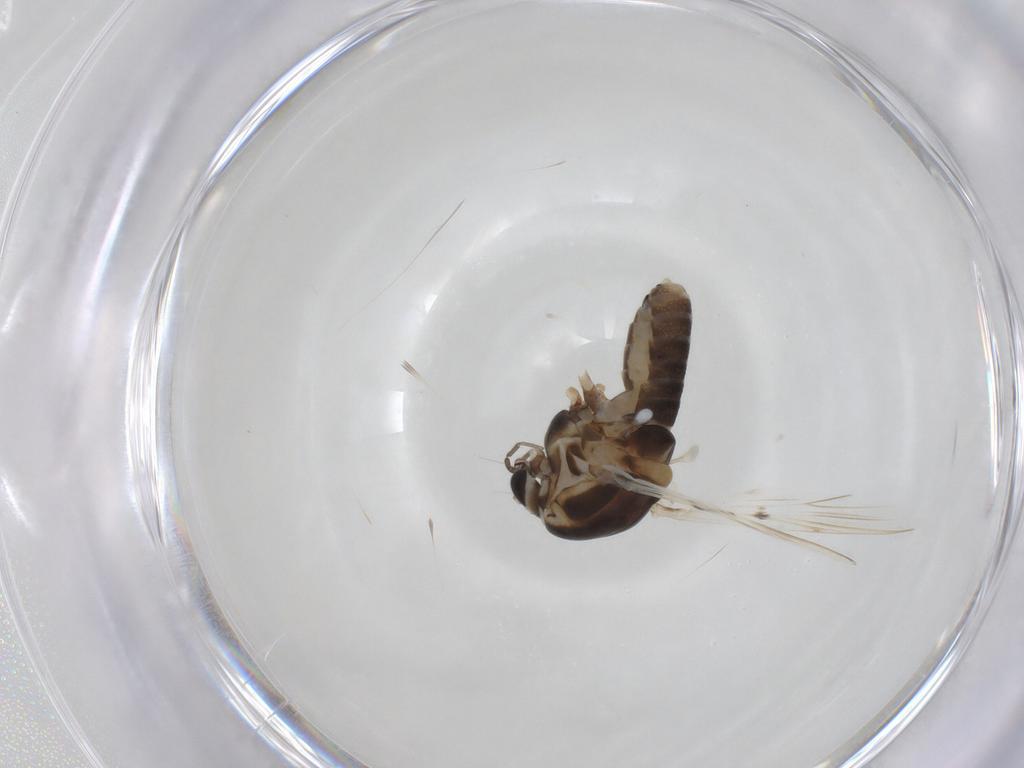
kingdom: Animalia
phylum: Arthropoda
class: Insecta
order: Diptera
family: Chironomidae
